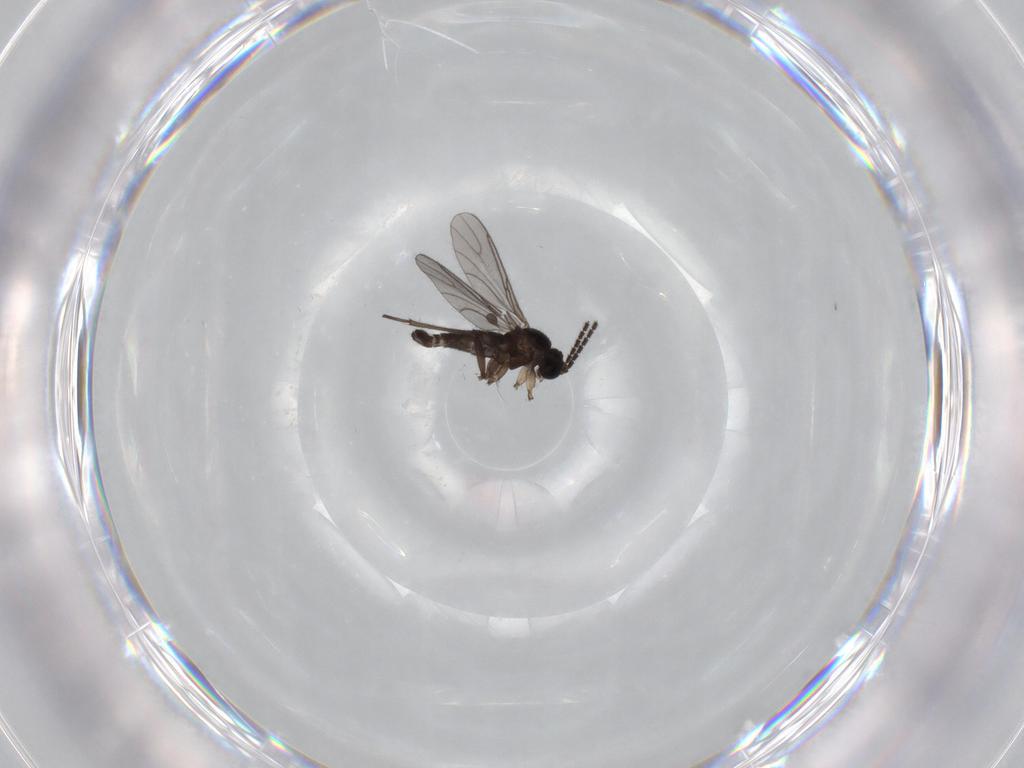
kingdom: Animalia
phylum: Arthropoda
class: Insecta
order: Diptera
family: Sciaridae
